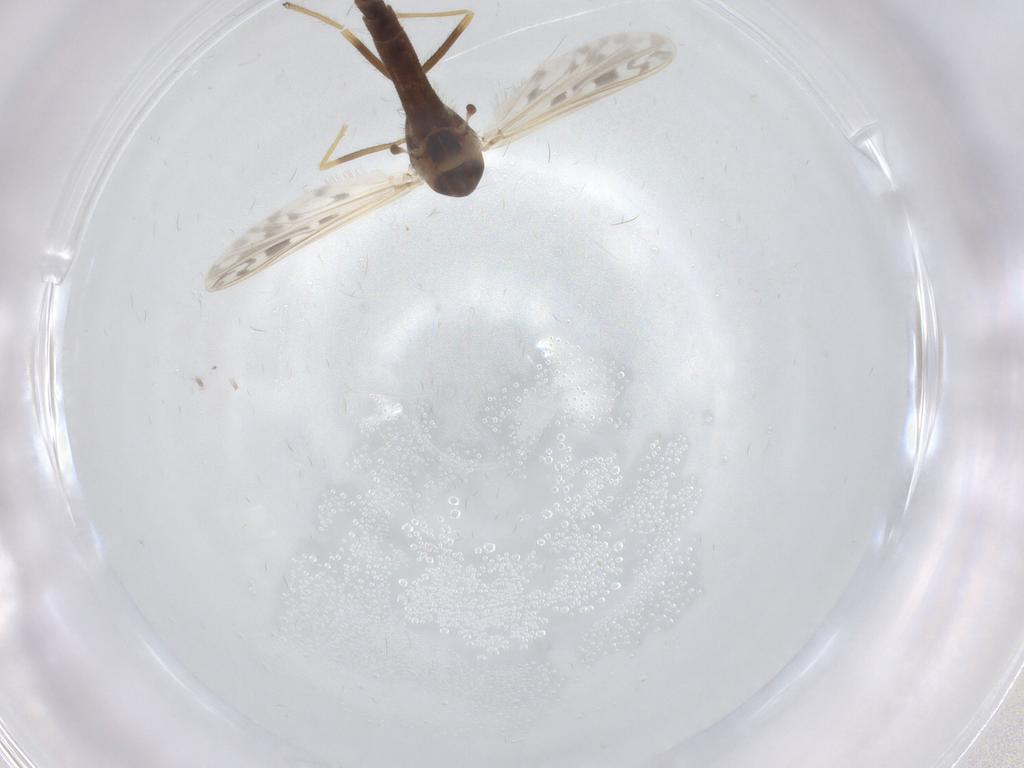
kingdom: Animalia
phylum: Arthropoda
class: Insecta
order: Diptera
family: Chironomidae
